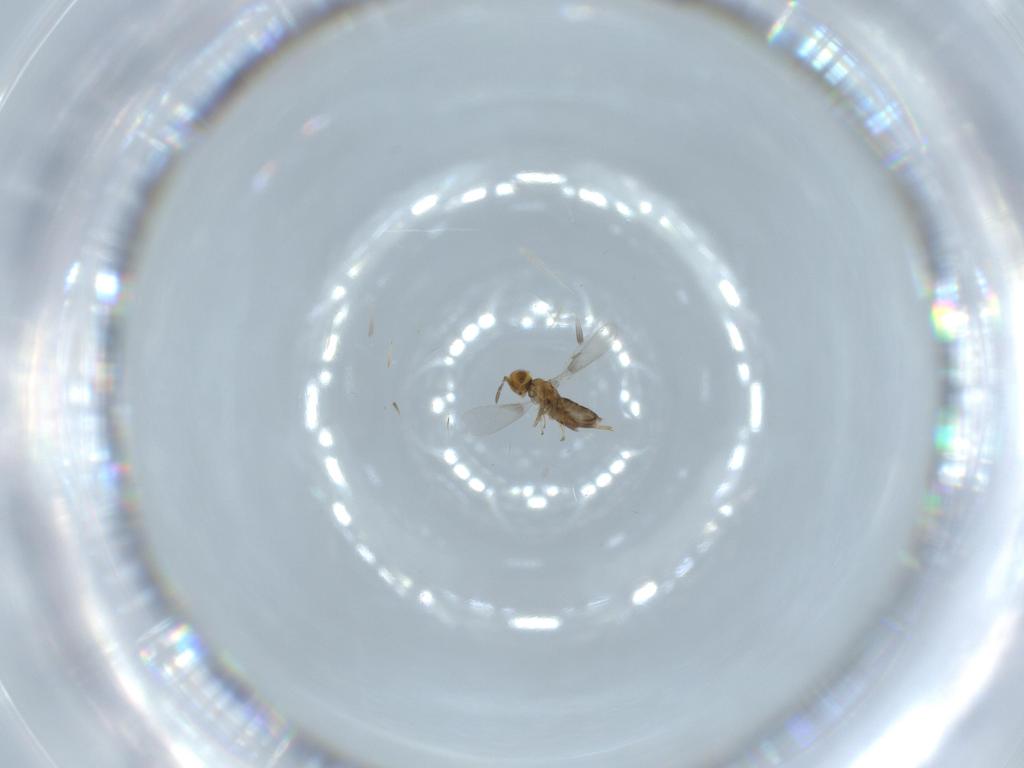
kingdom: Animalia
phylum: Arthropoda
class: Insecta
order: Hymenoptera
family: Aphelinidae
